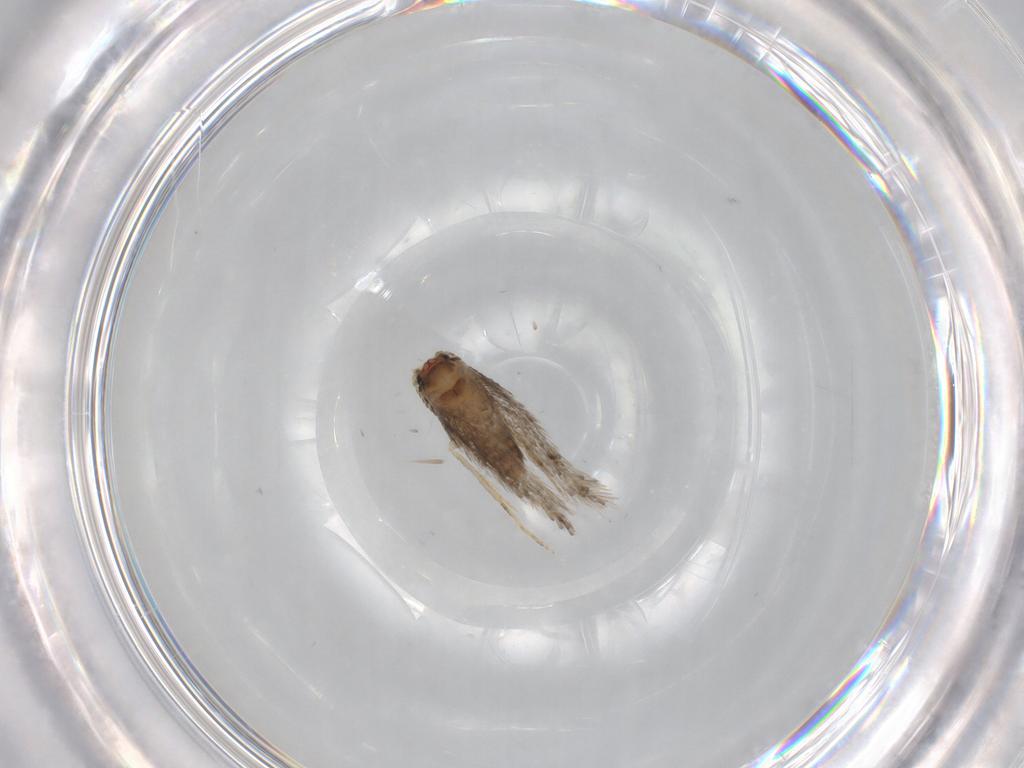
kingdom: Animalia
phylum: Arthropoda
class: Insecta
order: Lepidoptera
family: Nepticulidae
